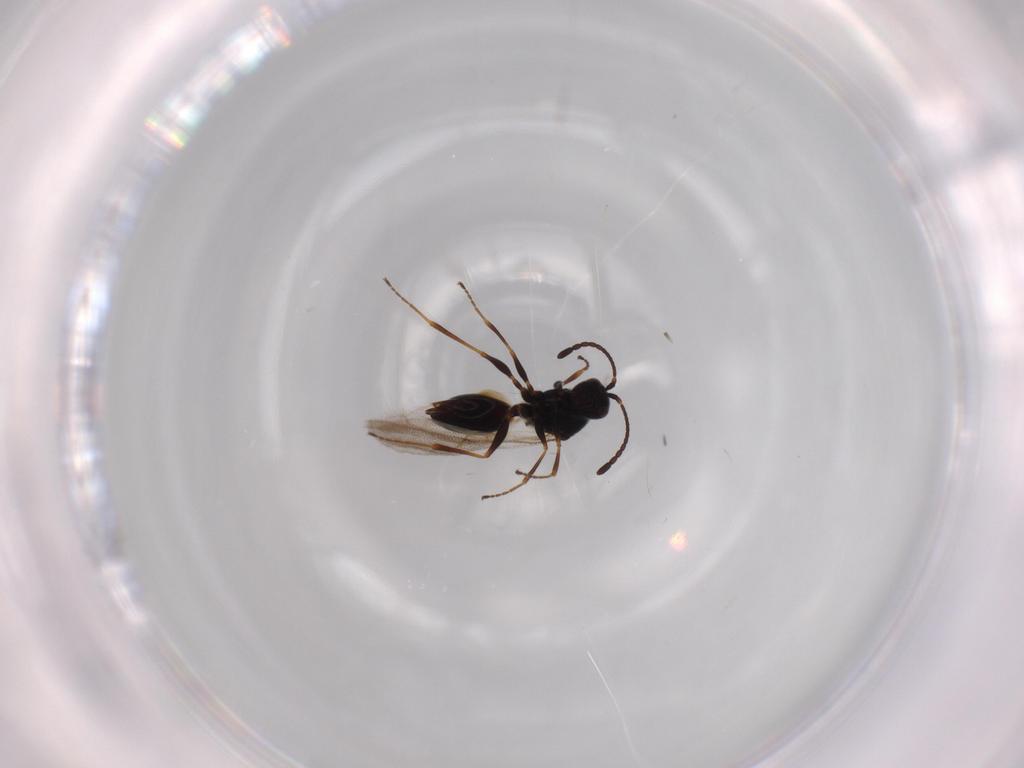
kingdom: Animalia
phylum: Arthropoda
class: Insecta
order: Hymenoptera
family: Figitidae
